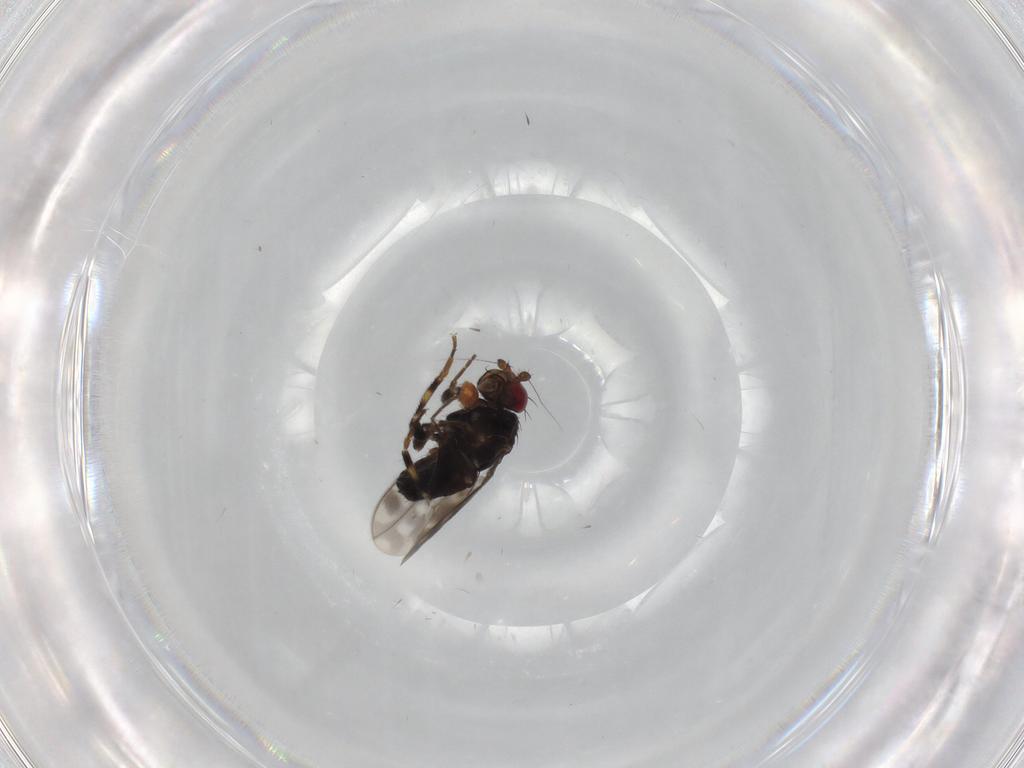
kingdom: Animalia
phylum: Arthropoda
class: Insecta
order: Diptera
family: Sphaeroceridae
